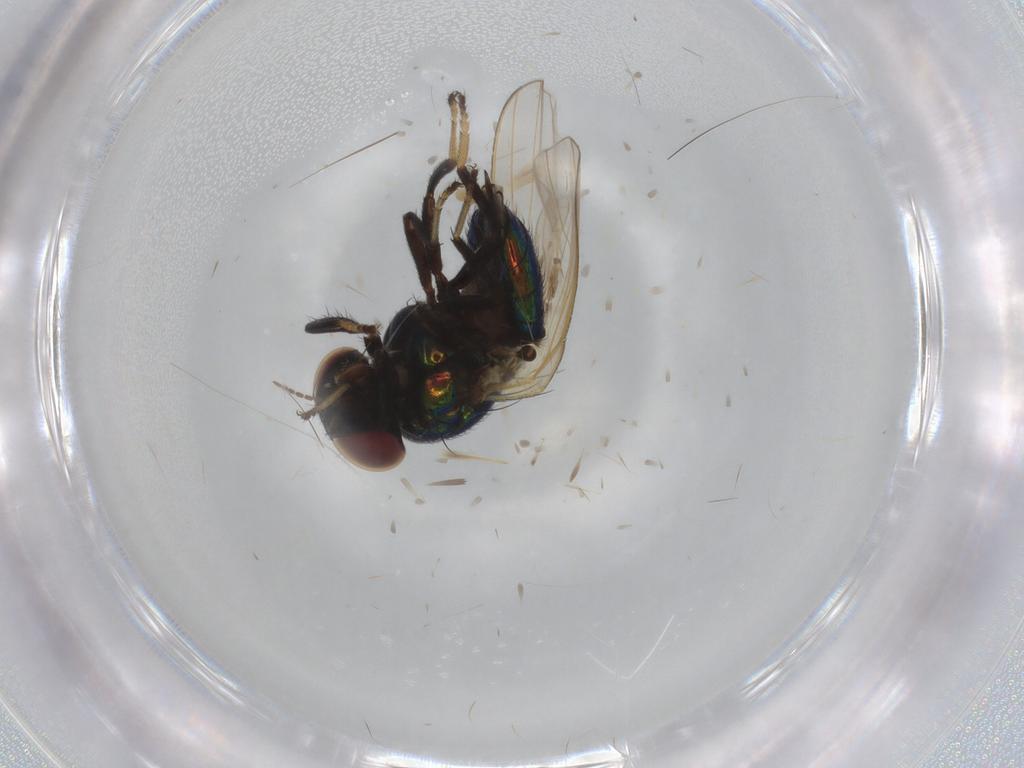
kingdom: Animalia
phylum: Arthropoda
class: Insecta
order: Diptera
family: Lonchaeidae
